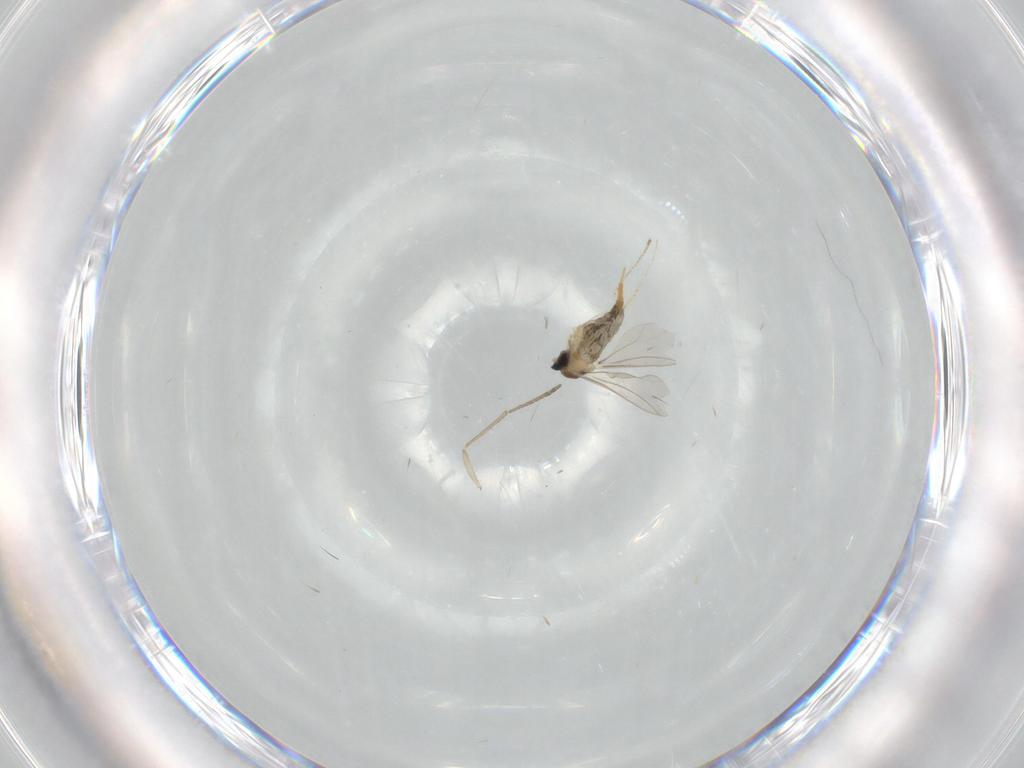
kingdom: Animalia
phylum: Arthropoda
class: Insecta
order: Diptera
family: Cecidomyiidae
